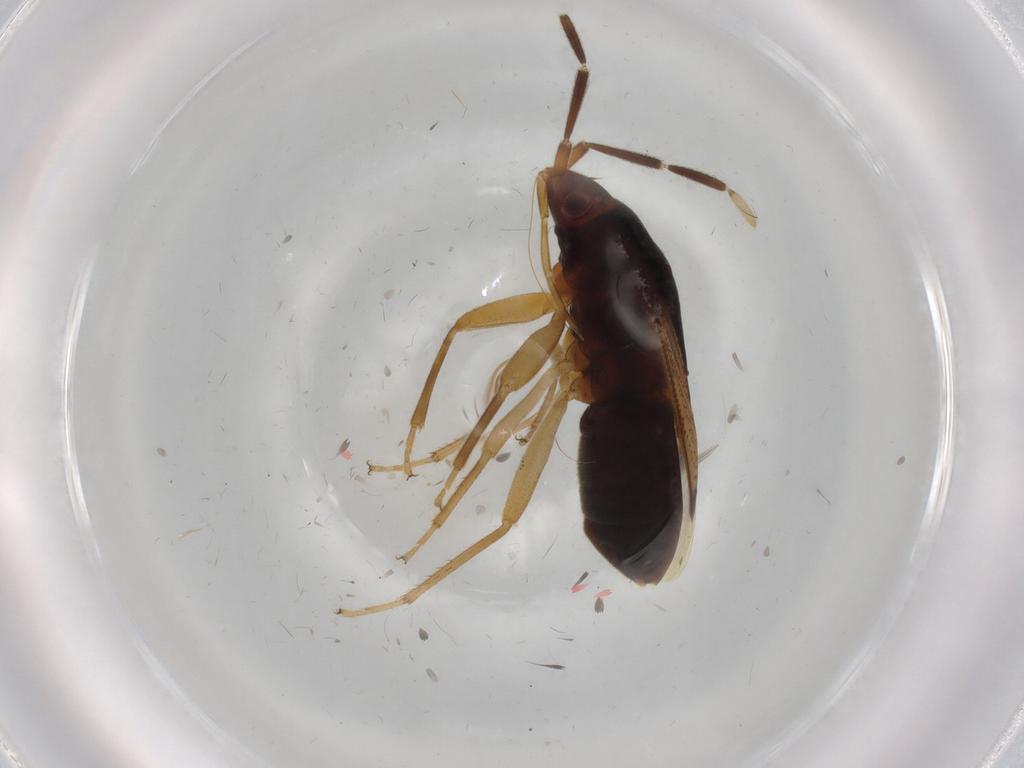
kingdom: Animalia
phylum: Arthropoda
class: Insecta
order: Hemiptera
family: Rhyparochromidae
